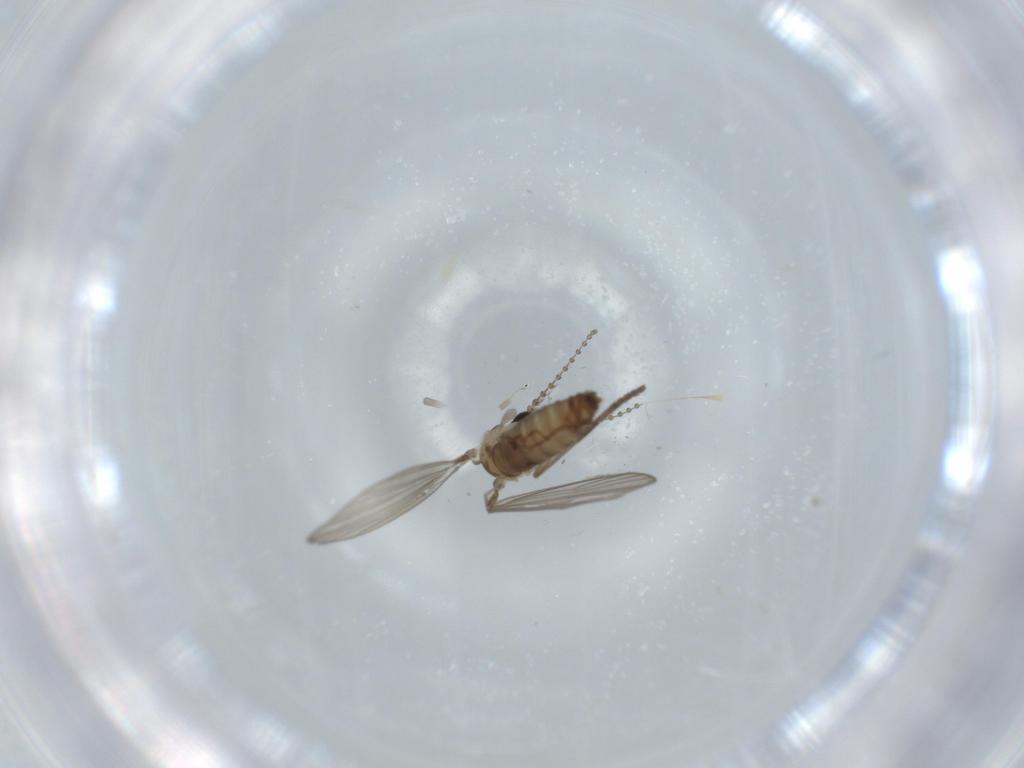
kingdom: Animalia
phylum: Arthropoda
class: Insecta
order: Diptera
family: Psychodidae
